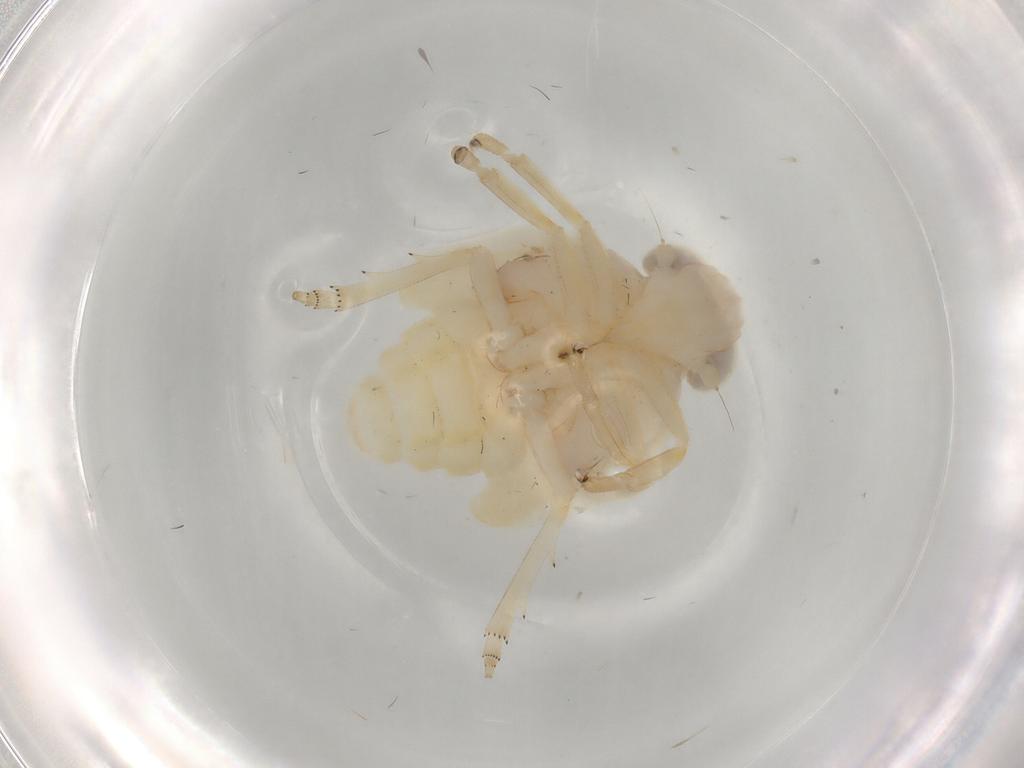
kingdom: Animalia
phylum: Arthropoda
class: Insecta
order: Hemiptera
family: Nogodinidae
